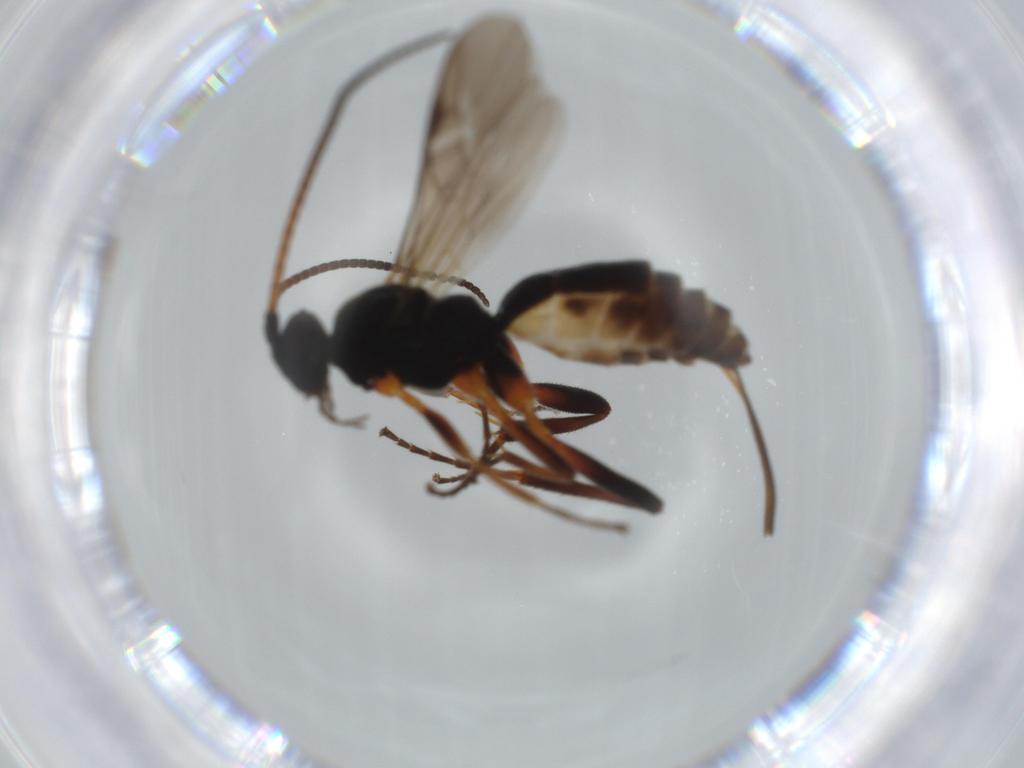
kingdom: Animalia
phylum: Arthropoda
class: Insecta
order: Hymenoptera
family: Braconidae
